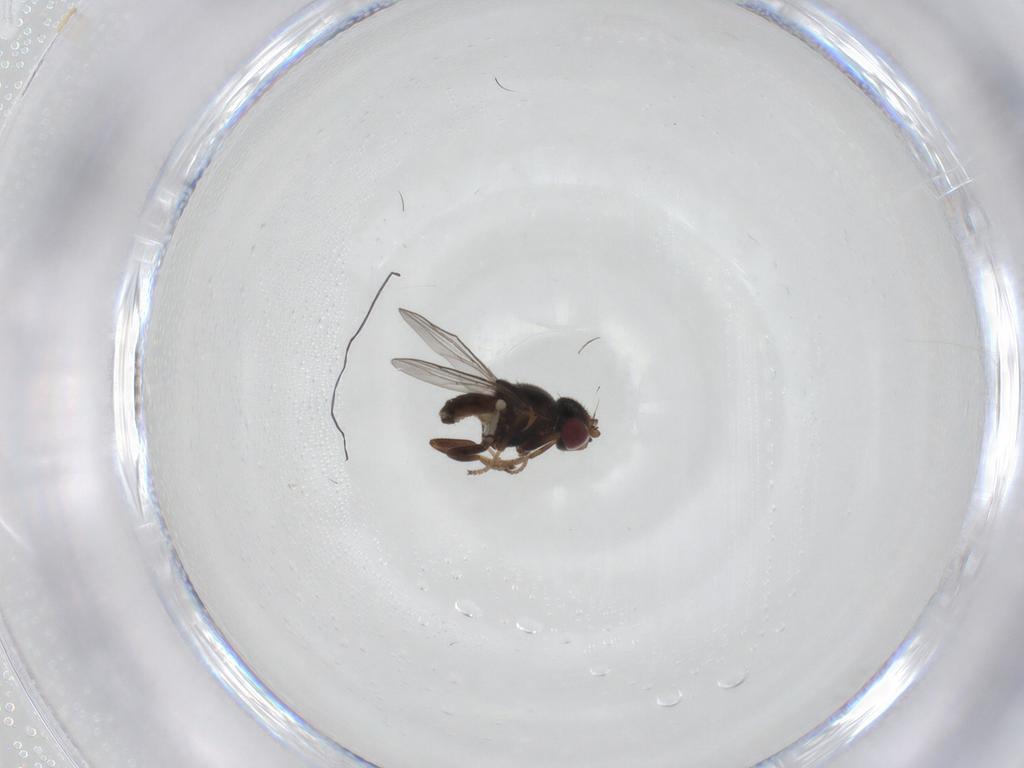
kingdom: Animalia
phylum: Arthropoda
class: Insecta
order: Diptera
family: Chloropidae
